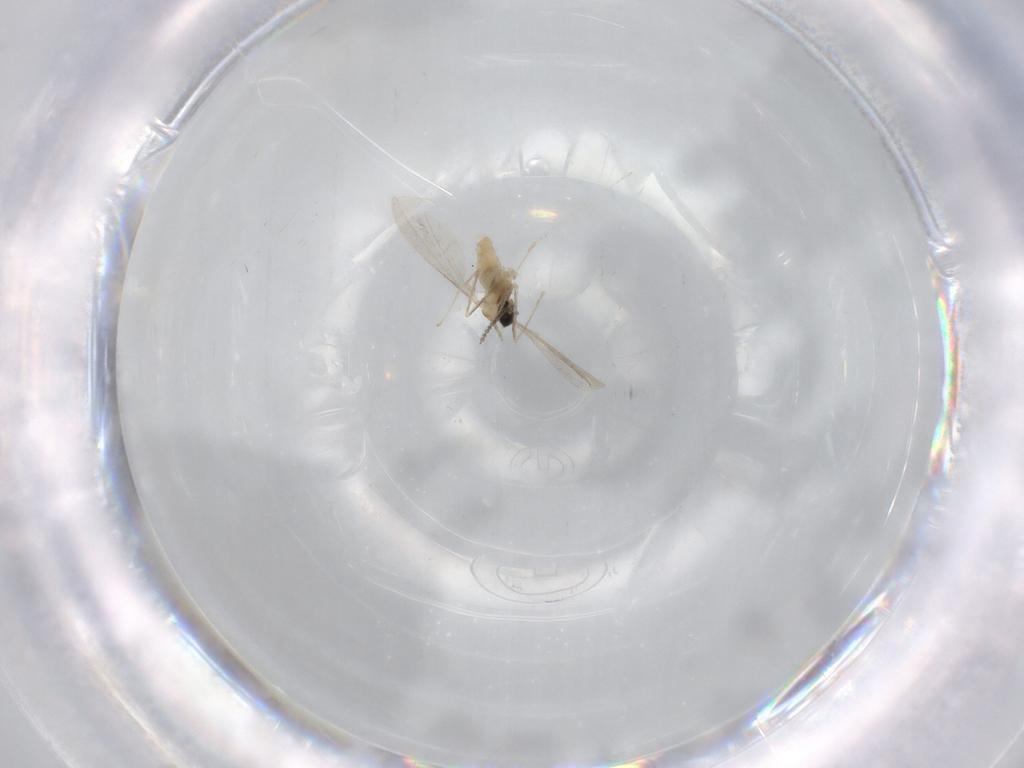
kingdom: Animalia
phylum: Arthropoda
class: Insecta
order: Diptera
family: Cecidomyiidae
